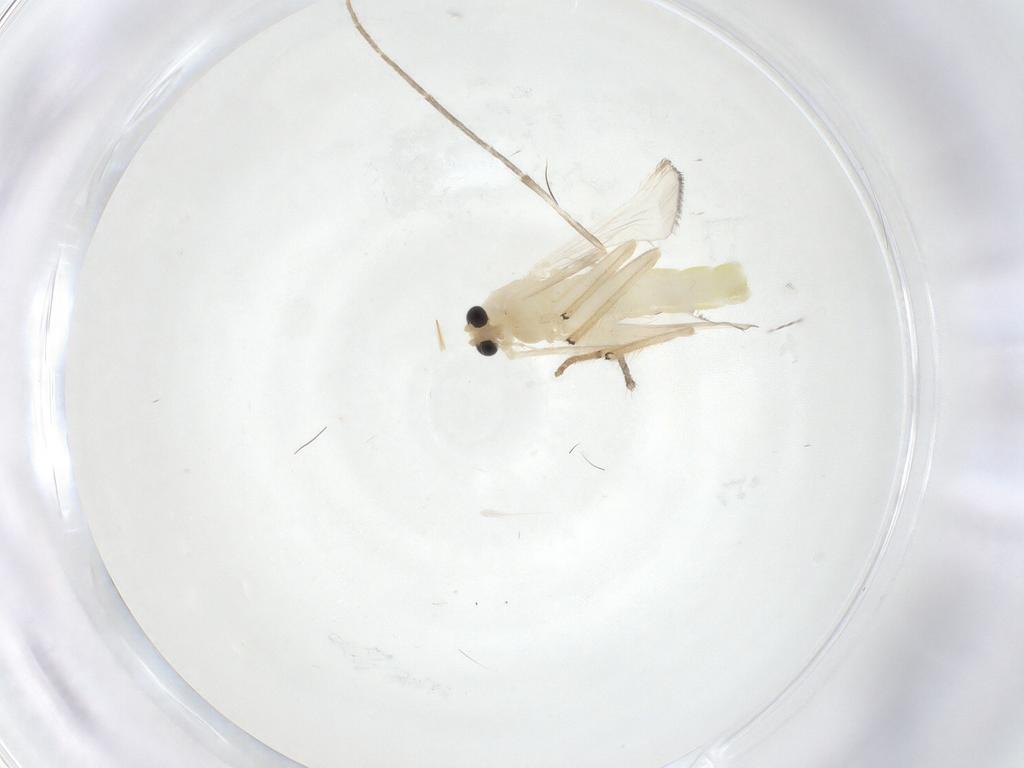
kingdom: Animalia
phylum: Arthropoda
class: Insecta
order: Diptera
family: Chironomidae
